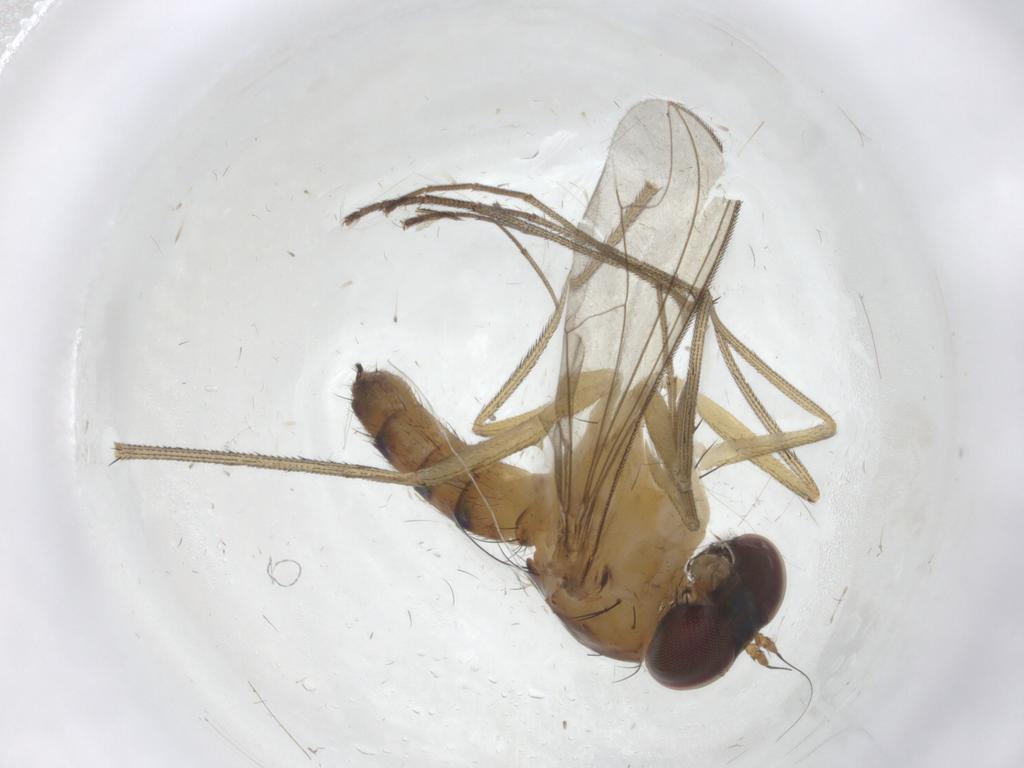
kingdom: Animalia
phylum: Arthropoda
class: Insecta
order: Diptera
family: Dolichopodidae
